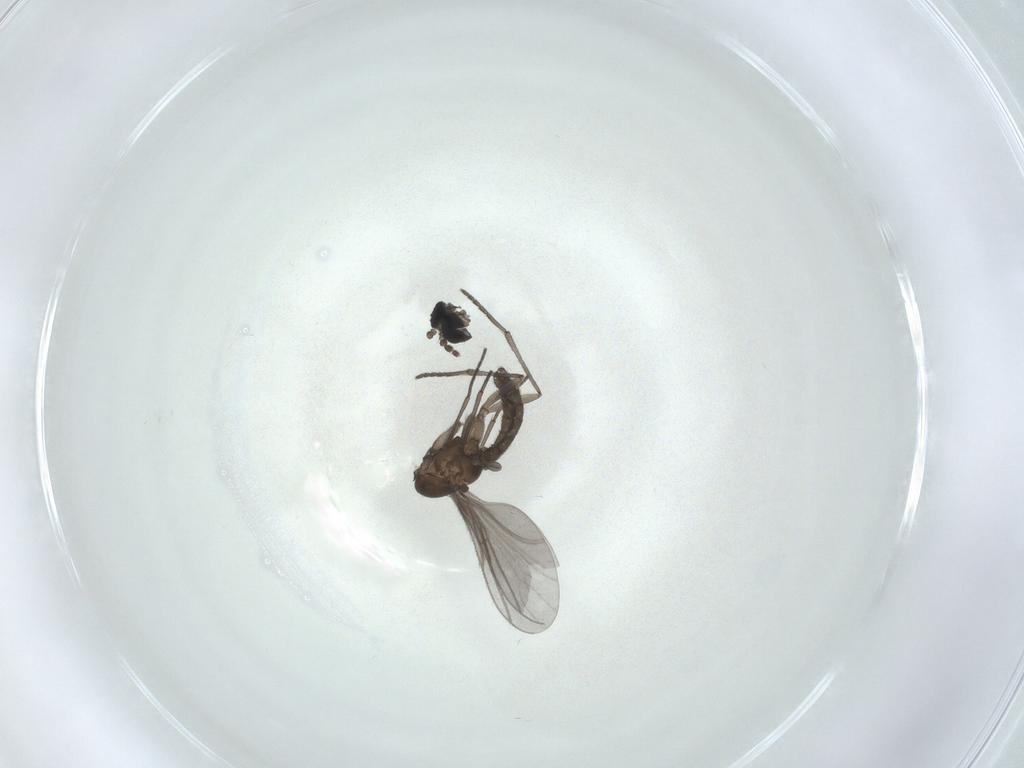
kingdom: Animalia
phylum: Arthropoda
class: Insecta
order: Diptera
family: Sciaridae
